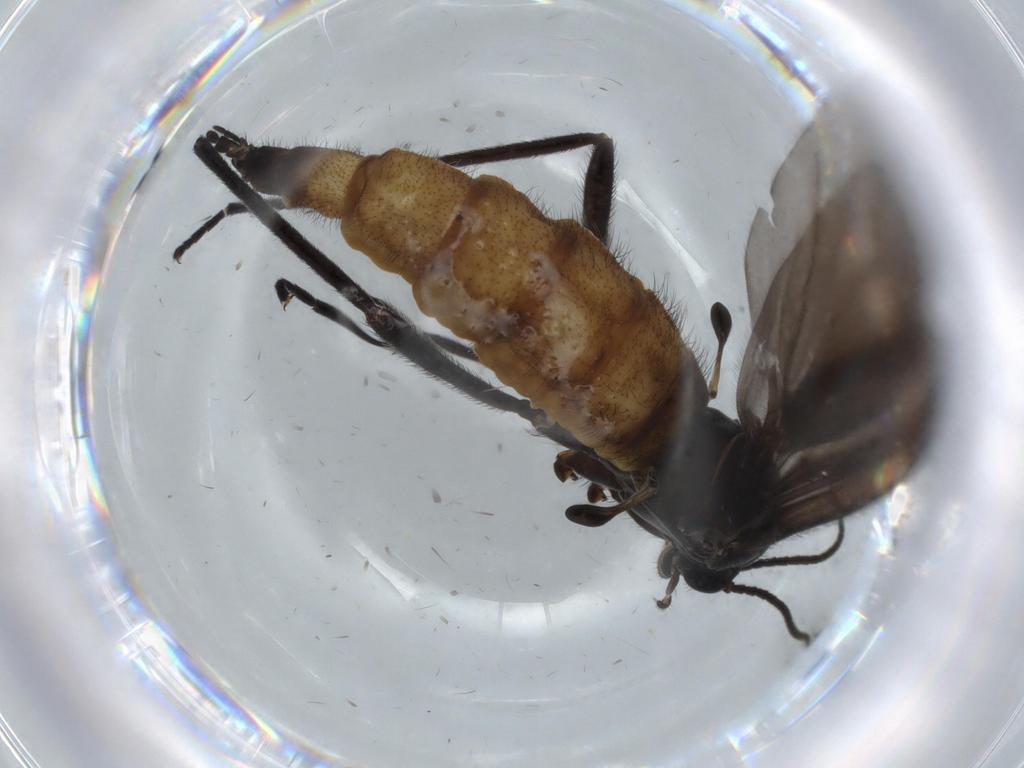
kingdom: Animalia
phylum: Arthropoda
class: Insecta
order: Diptera
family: Sciaridae
